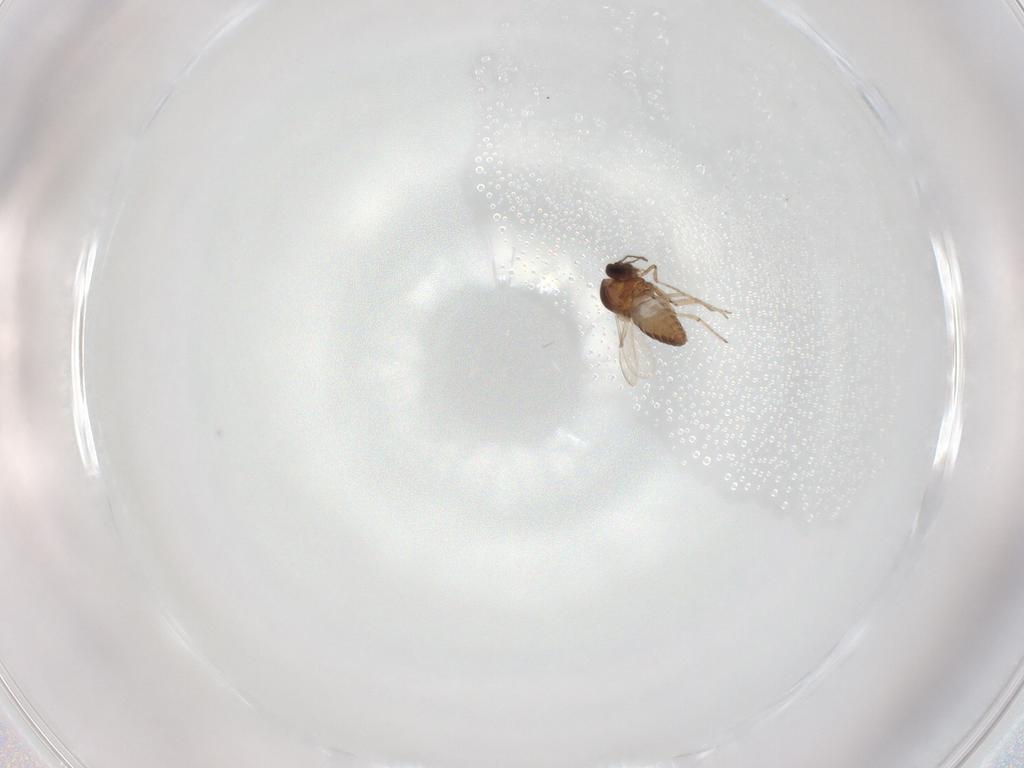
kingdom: Animalia
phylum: Arthropoda
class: Insecta
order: Diptera
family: Ceratopogonidae
